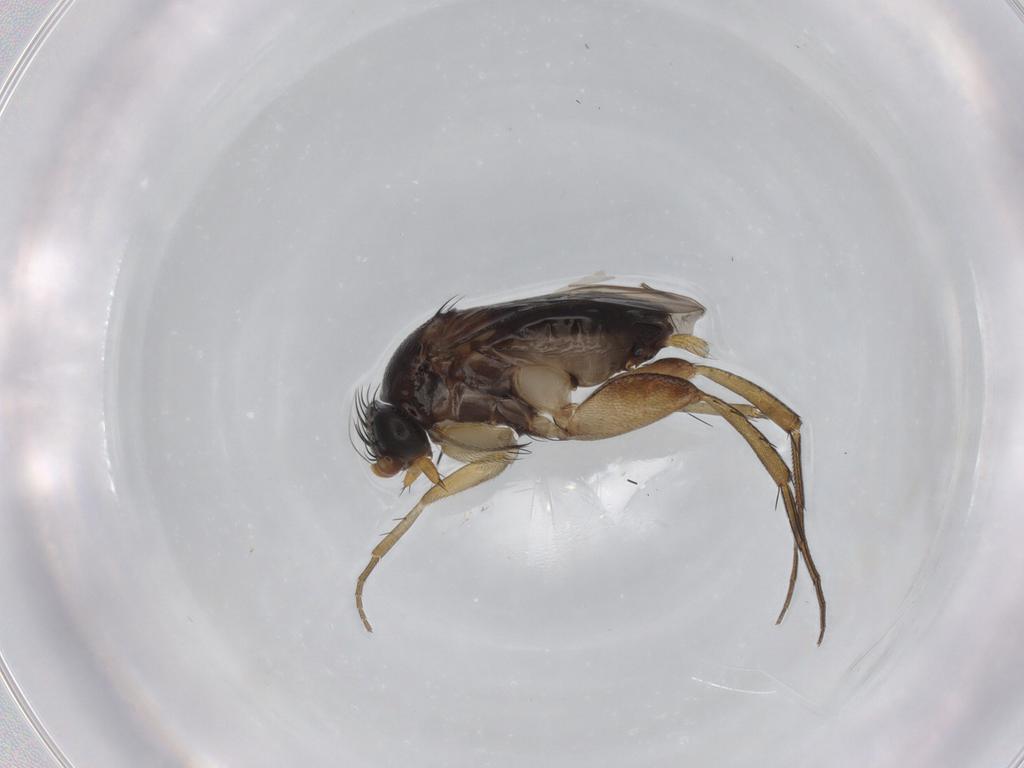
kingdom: Animalia
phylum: Arthropoda
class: Insecta
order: Diptera
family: Phoridae
